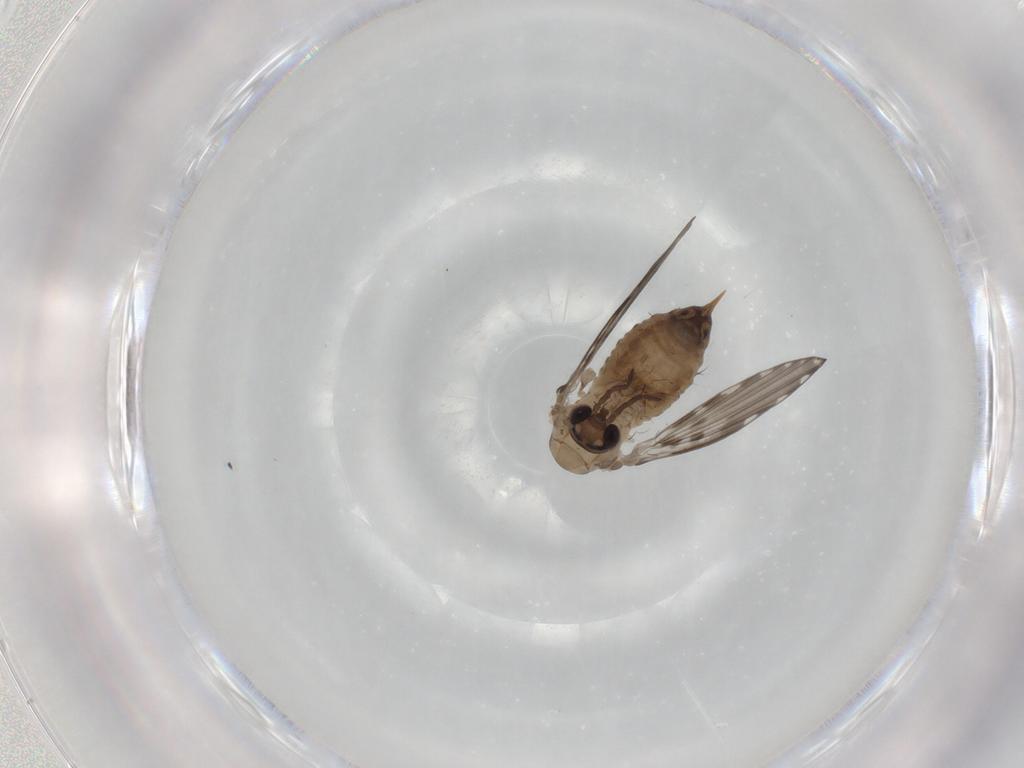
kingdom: Animalia
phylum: Arthropoda
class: Insecta
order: Diptera
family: Psychodidae
